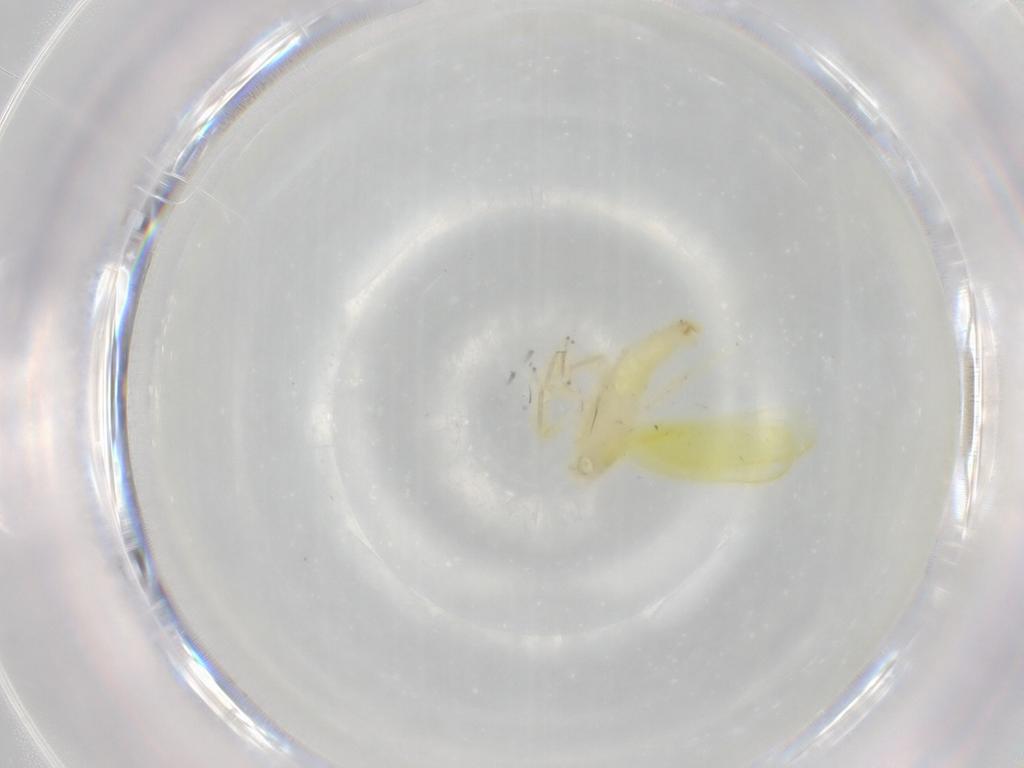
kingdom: Animalia
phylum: Arthropoda
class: Insecta
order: Hemiptera
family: Cicadellidae
